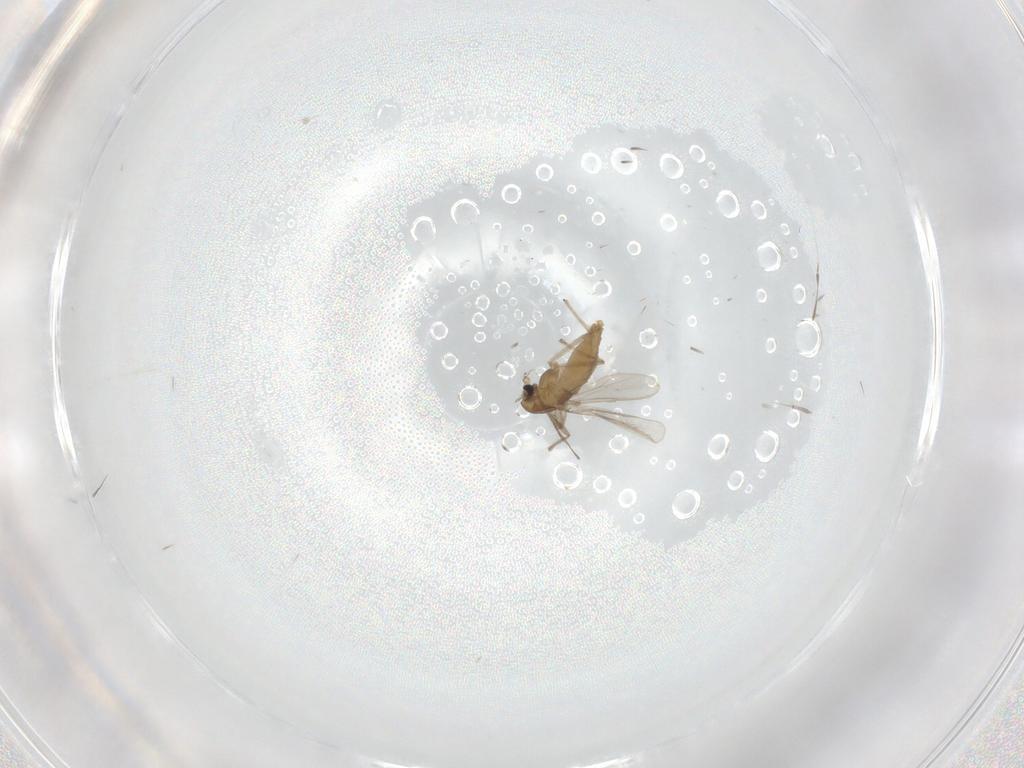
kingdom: Animalia
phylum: Arthropoda
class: Insecta
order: Diptera
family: Chironomidae
